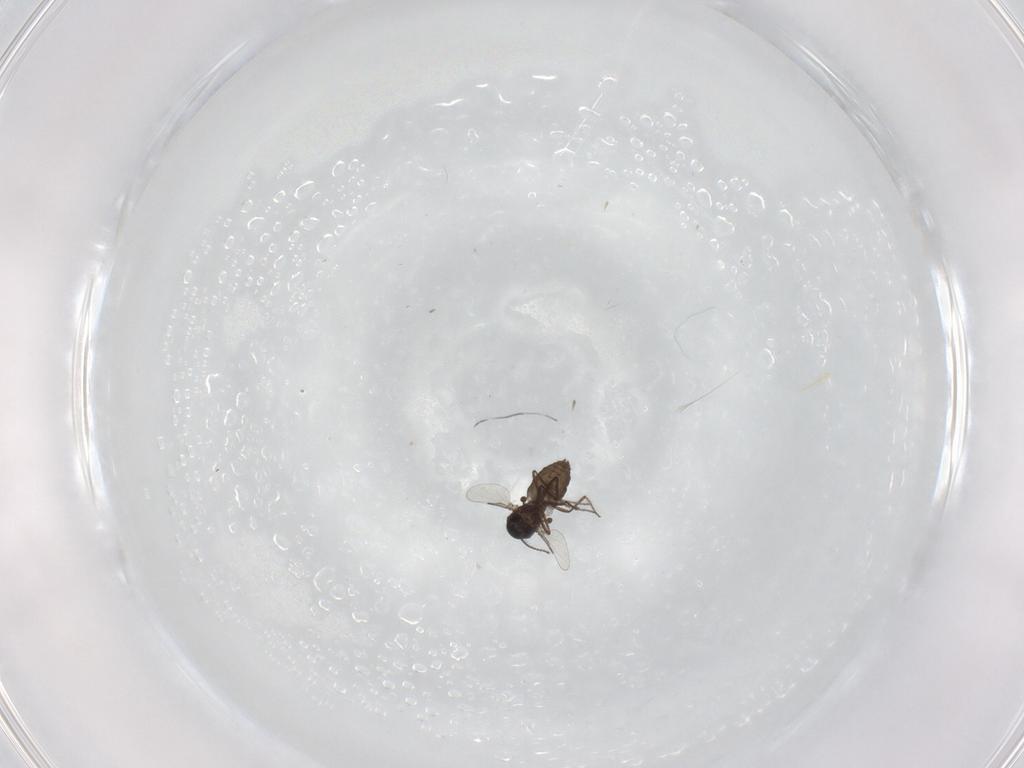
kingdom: Animalia
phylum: Arthropoda
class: Insecta
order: Diptera
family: Ceratopogonidae
